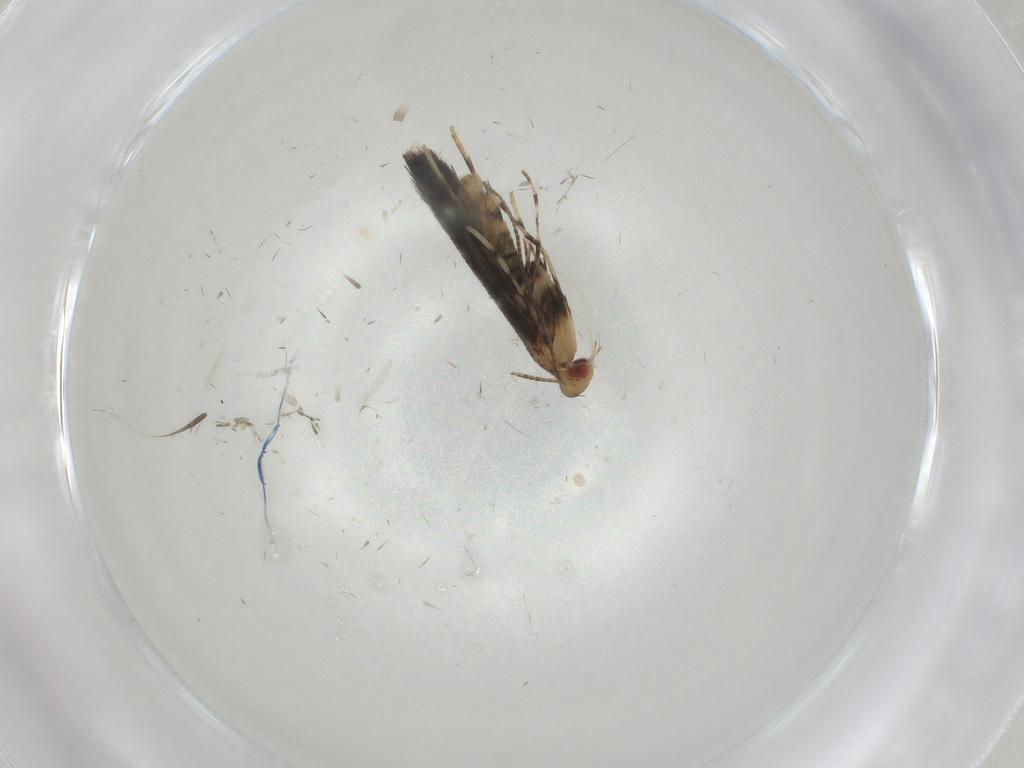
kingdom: Animalia
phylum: Arthropoda
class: Insecta
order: Lepidoptera
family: Gracillariidae
